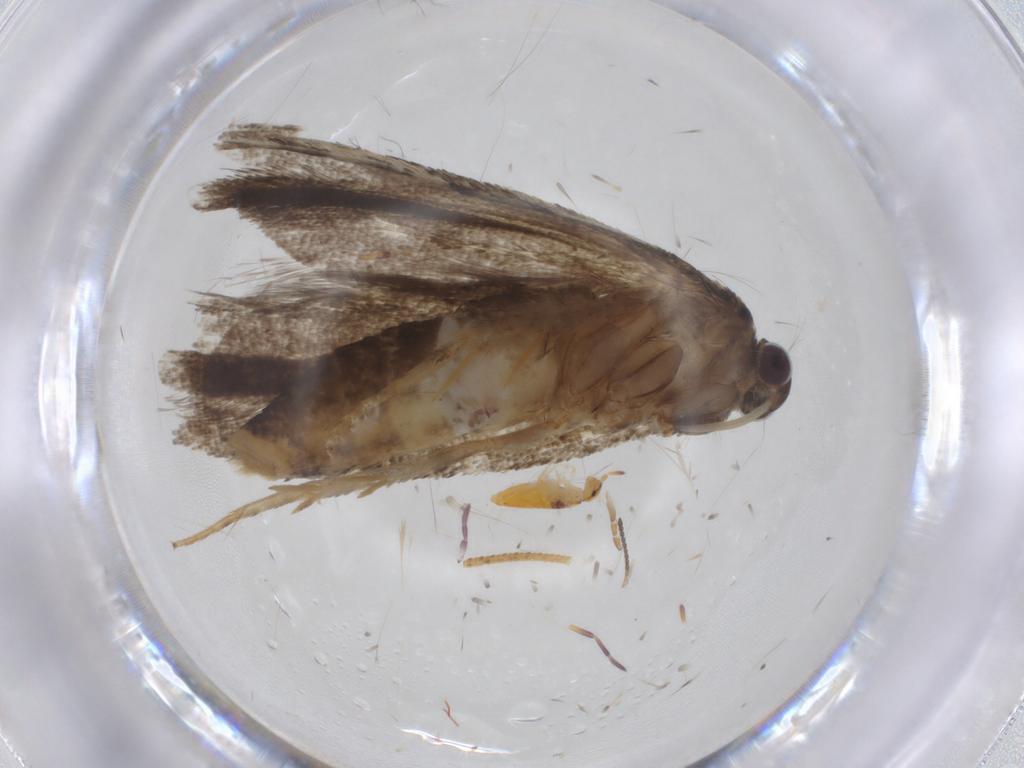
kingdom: Animalia
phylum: Arthropoda
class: Insecta
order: Lepidoptera
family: Tortricidae
